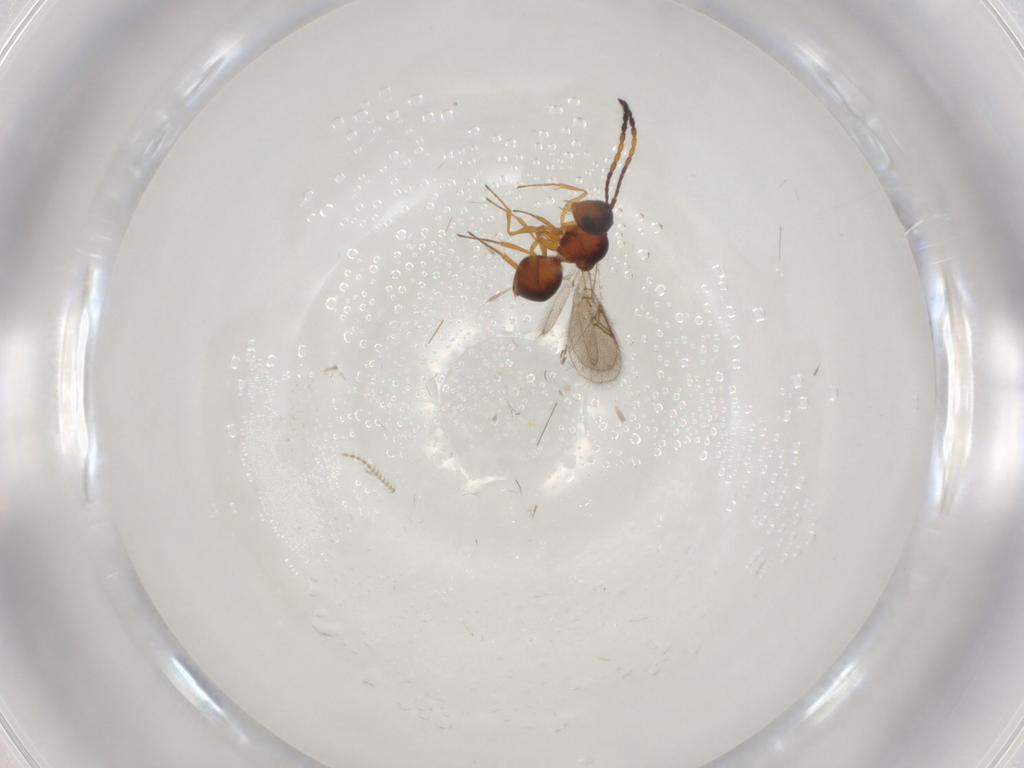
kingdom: Animalia
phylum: Arthropoda
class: Insecta
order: Hymenoptera
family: Figitidae
